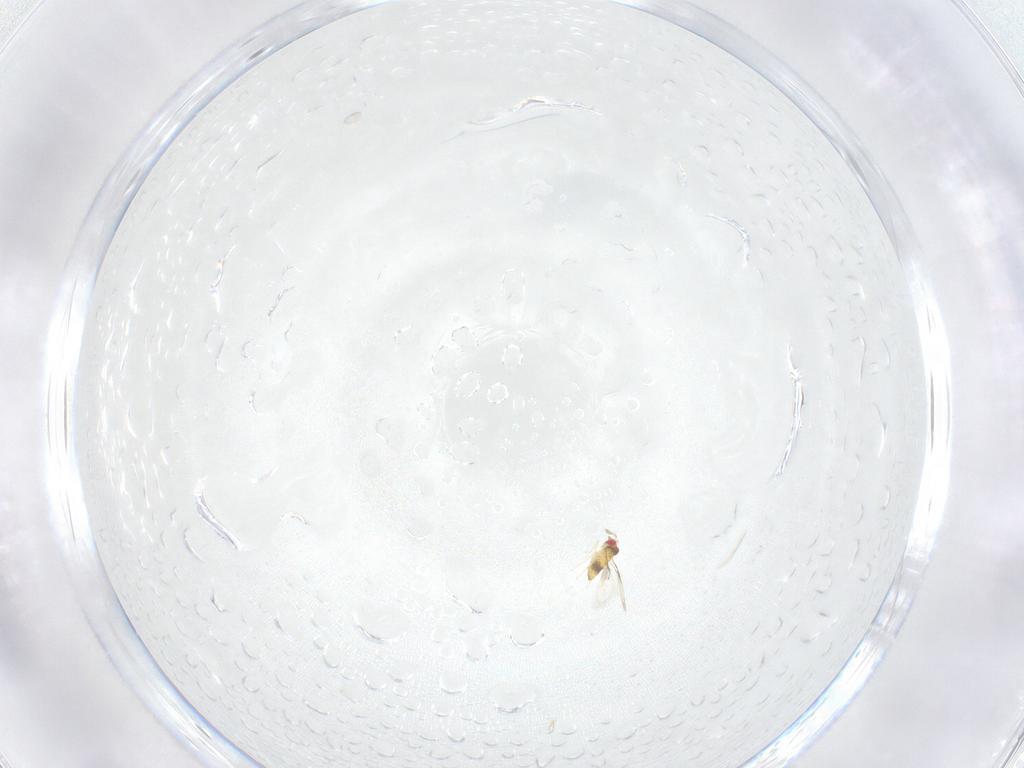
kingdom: Animalia
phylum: Arthropoda
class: Insecta
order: Hymenoptera
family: Trichogrammatidae
